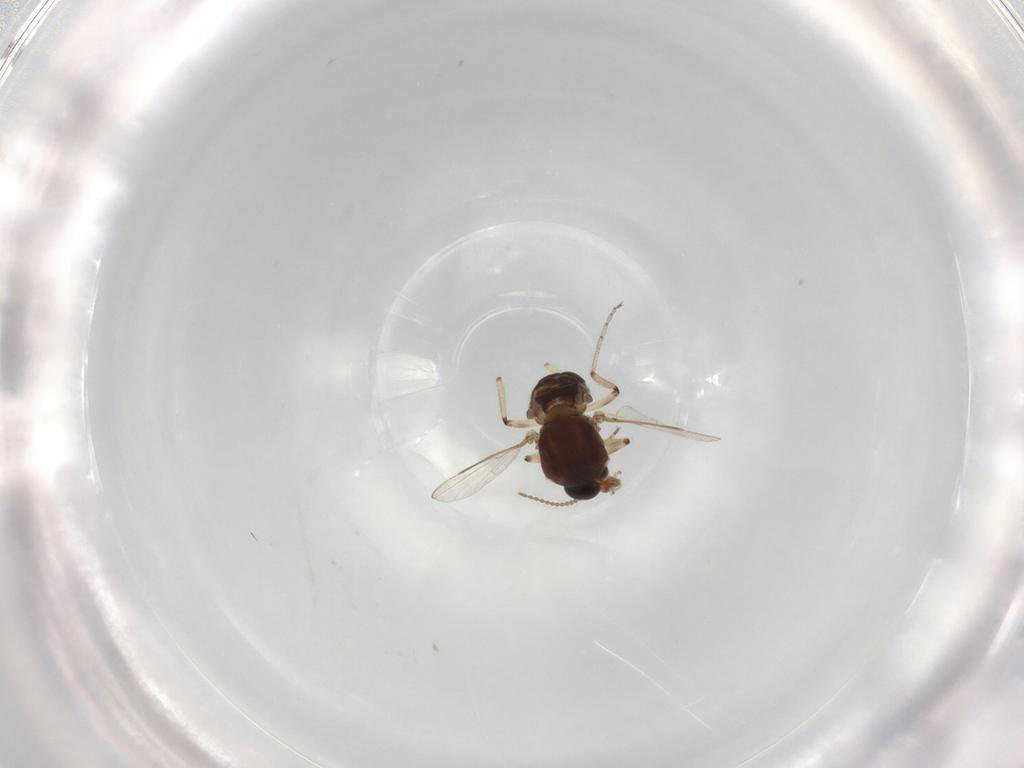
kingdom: Animalia
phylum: Arthropoda
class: Insecta
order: Diptera
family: Ceratopogonidae
